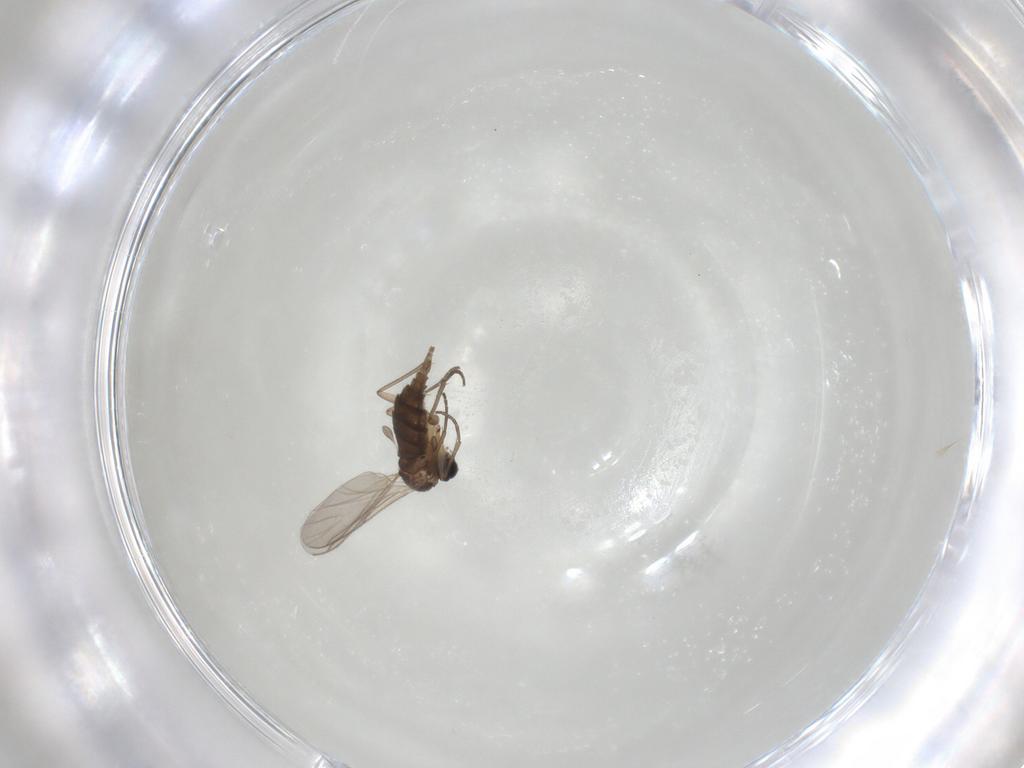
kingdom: Animalia
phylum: Arthropoda
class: Insecta
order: Diptera
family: Sciaridae
